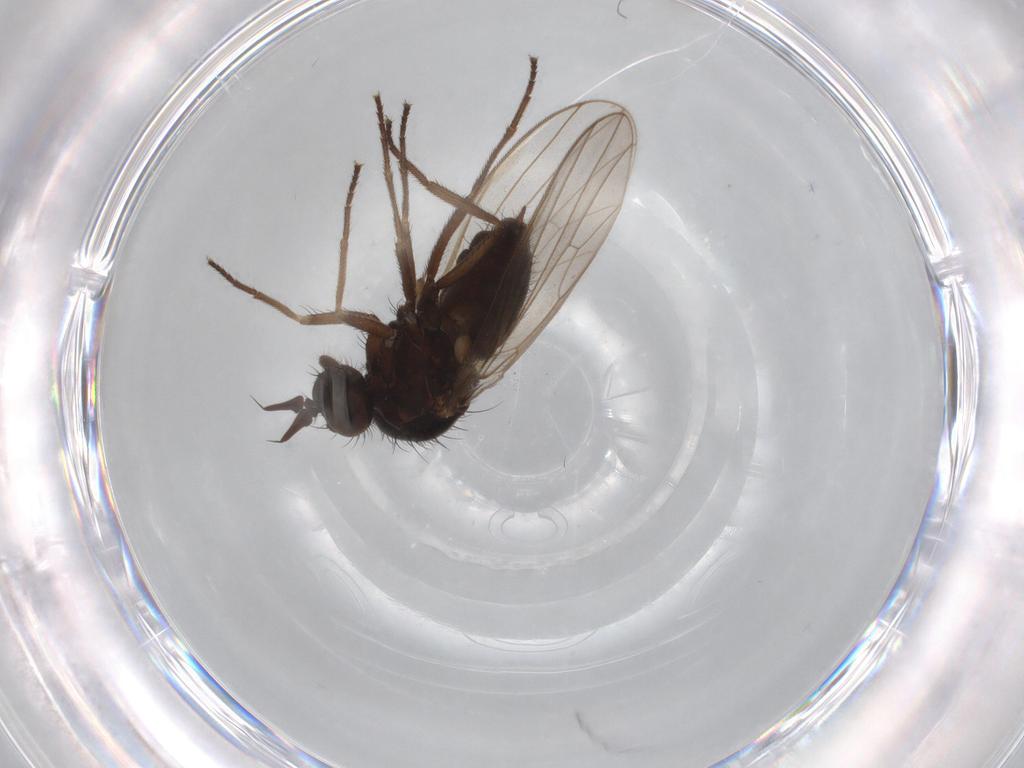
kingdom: Animalia
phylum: Arthropoda
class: Insecta
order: Diptera
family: Dolichopodidae
